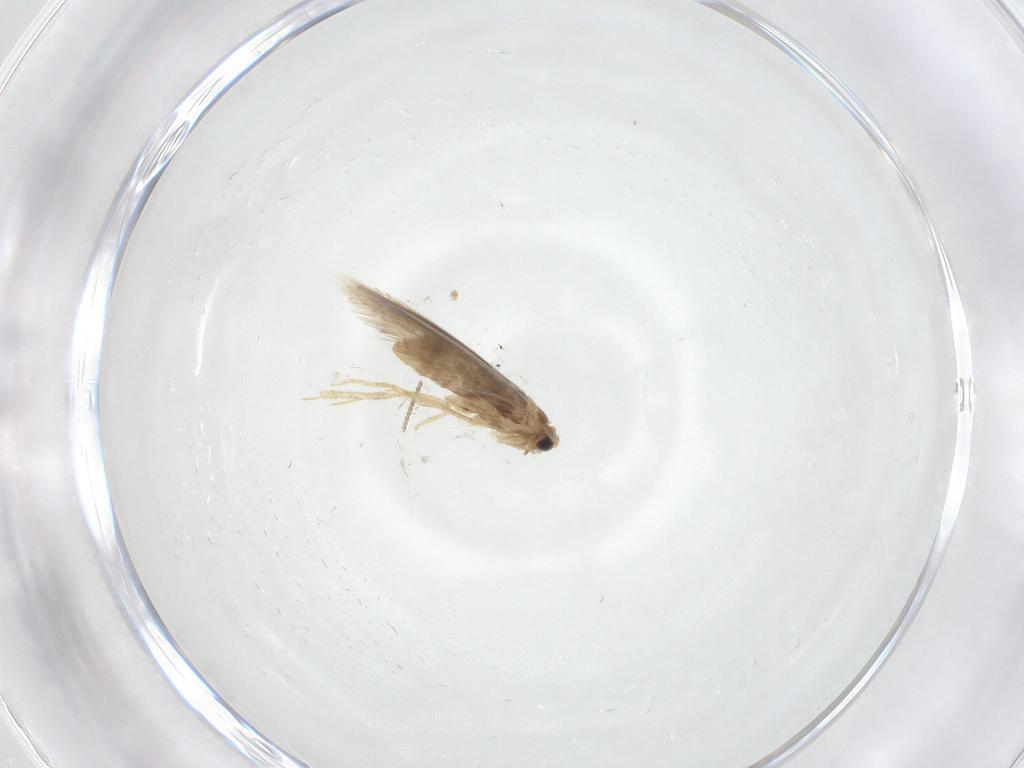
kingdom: Animalia
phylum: Arthropoda
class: Insecta
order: Lepidoptera
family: Nepticulidae
